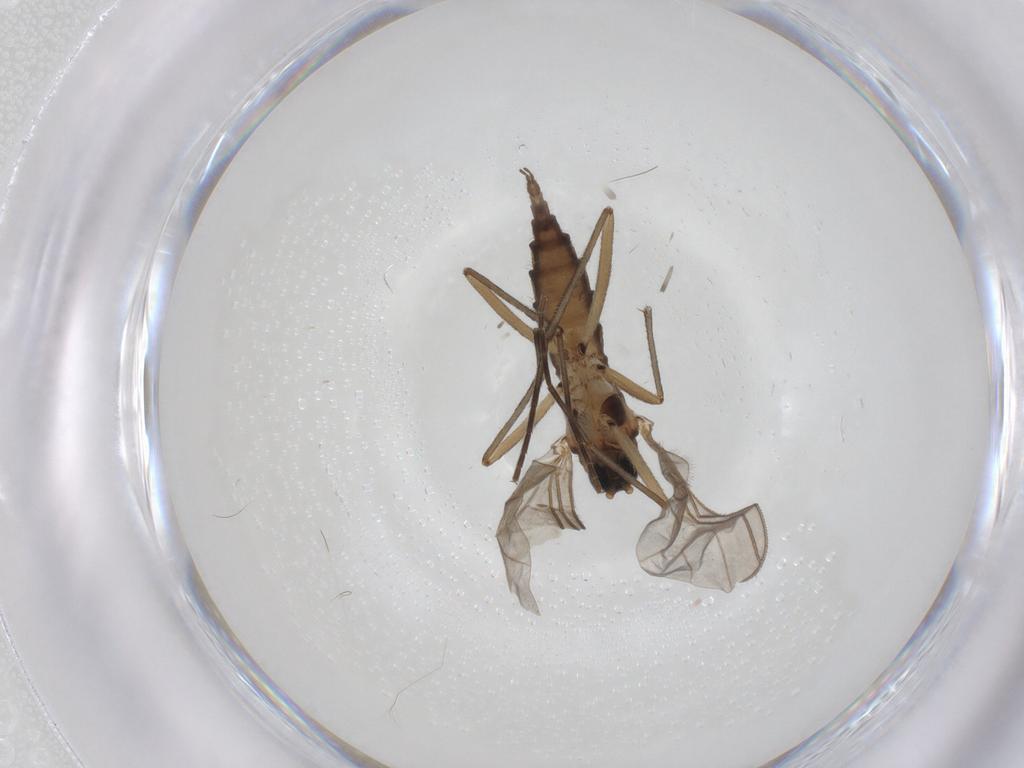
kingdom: Animalia
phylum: Arthropoda
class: Insecta
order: Diptera
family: Sciaridae
